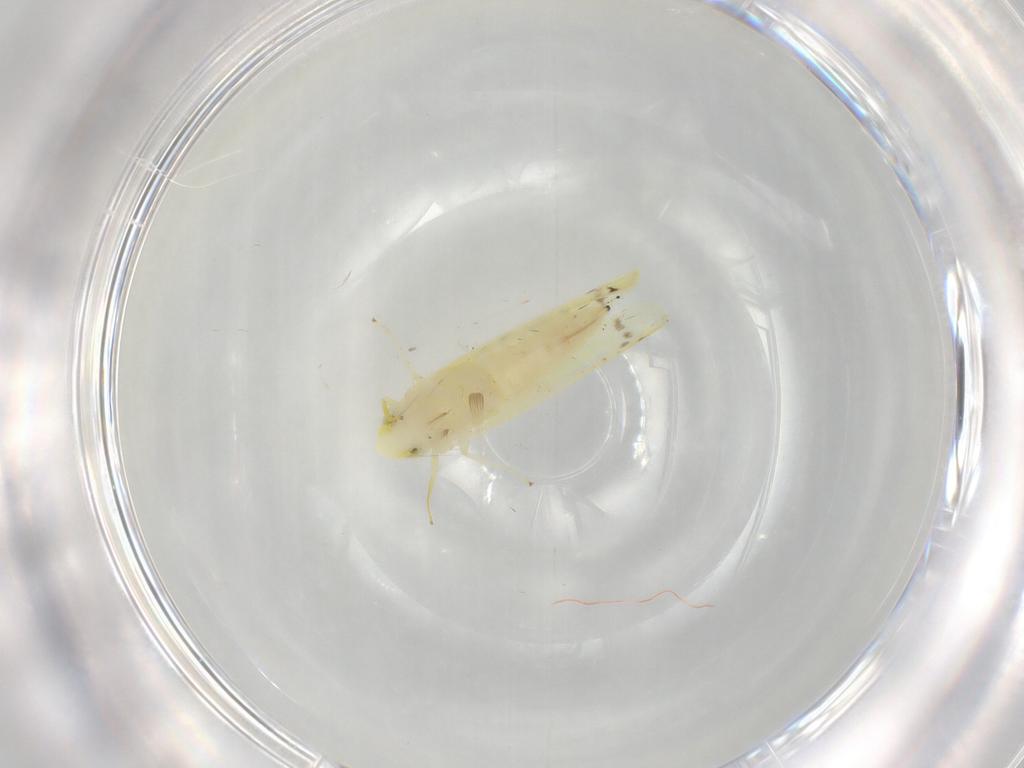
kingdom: Animalia
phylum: Arthropoda
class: Insecta
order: Hemiptera
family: Cicadellidae
